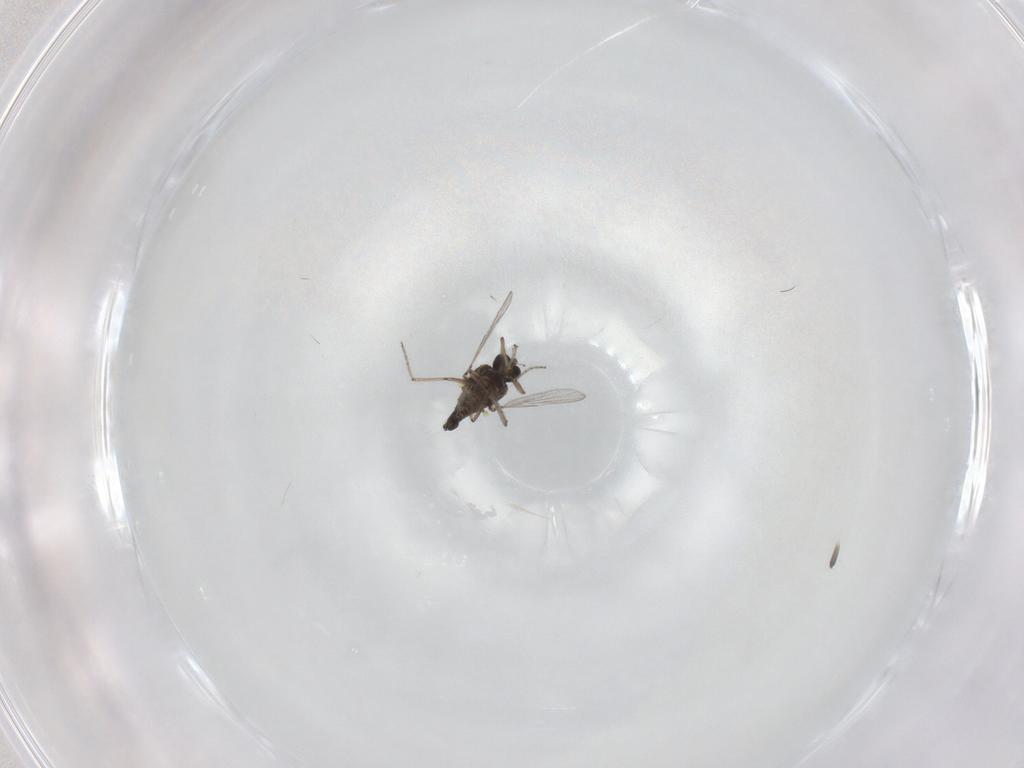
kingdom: Animalia
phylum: Arthropoda
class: Insecta
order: Diptera
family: Ceratopogonidae
